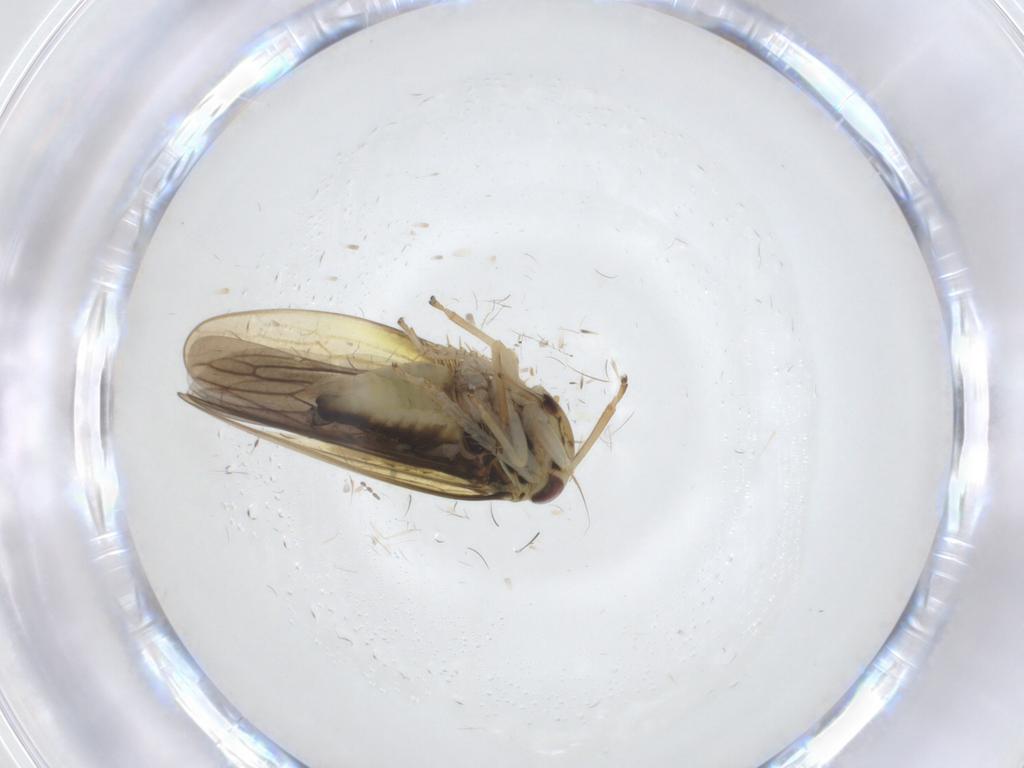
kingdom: Animalia
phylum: Arthropoda
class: Insecta
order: Hemiptera
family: Cicadellidae
